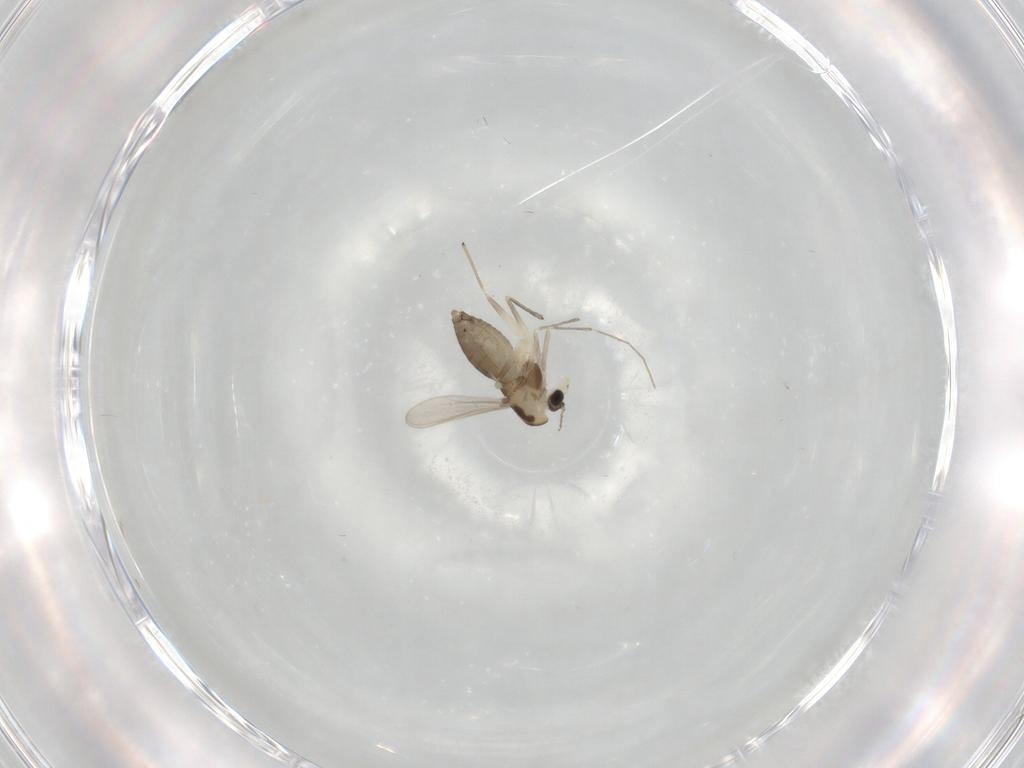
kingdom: Animalia
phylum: Arthropoda
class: Insecta
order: Diptera
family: Chironomidae
